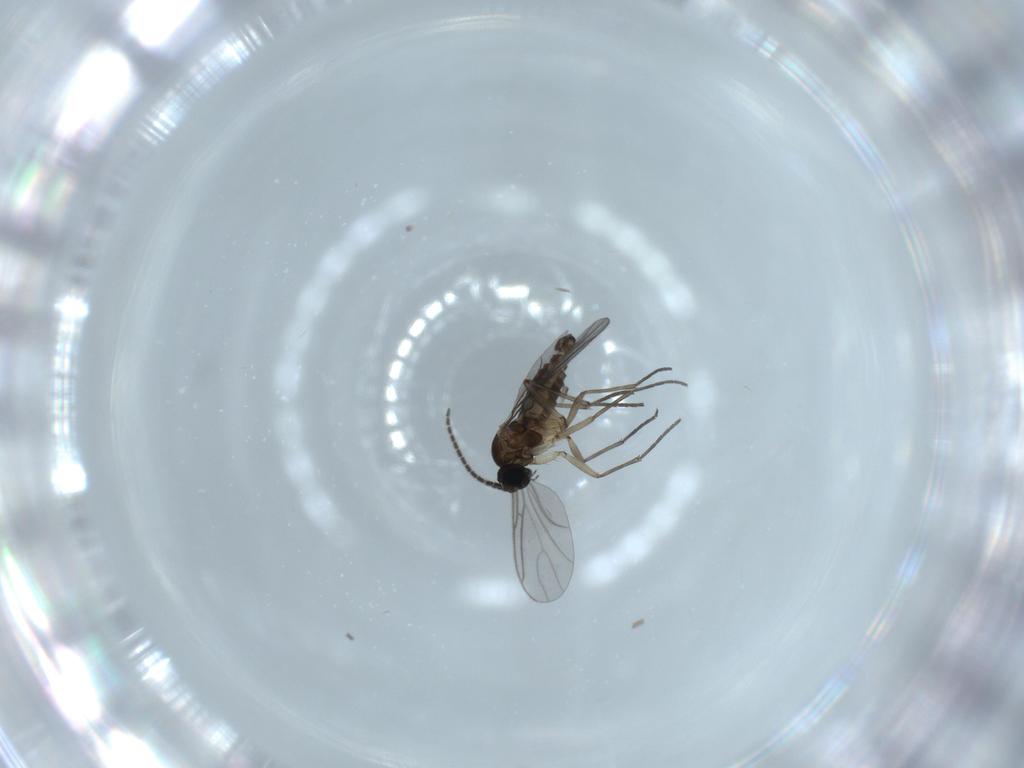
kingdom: Animalia
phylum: Arthropoda
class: Insecta
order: Diptera
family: Sciaridae
